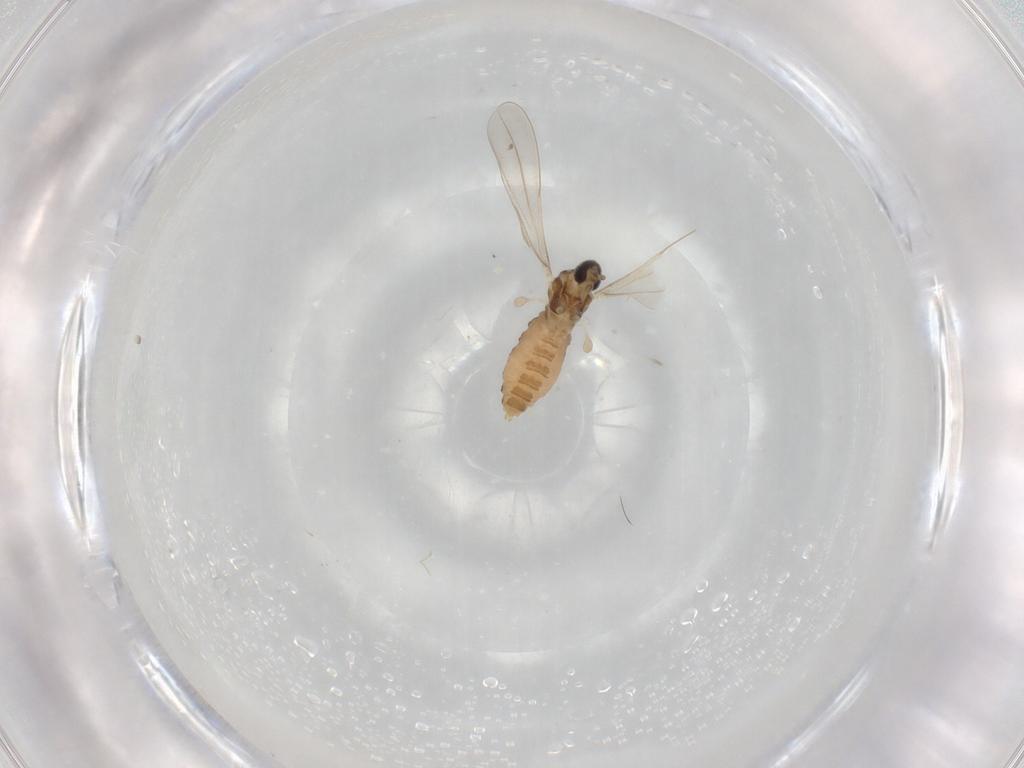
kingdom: Animalia
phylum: Arthropoda
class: Insecta
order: Diptera
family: Cecidomyiidae
